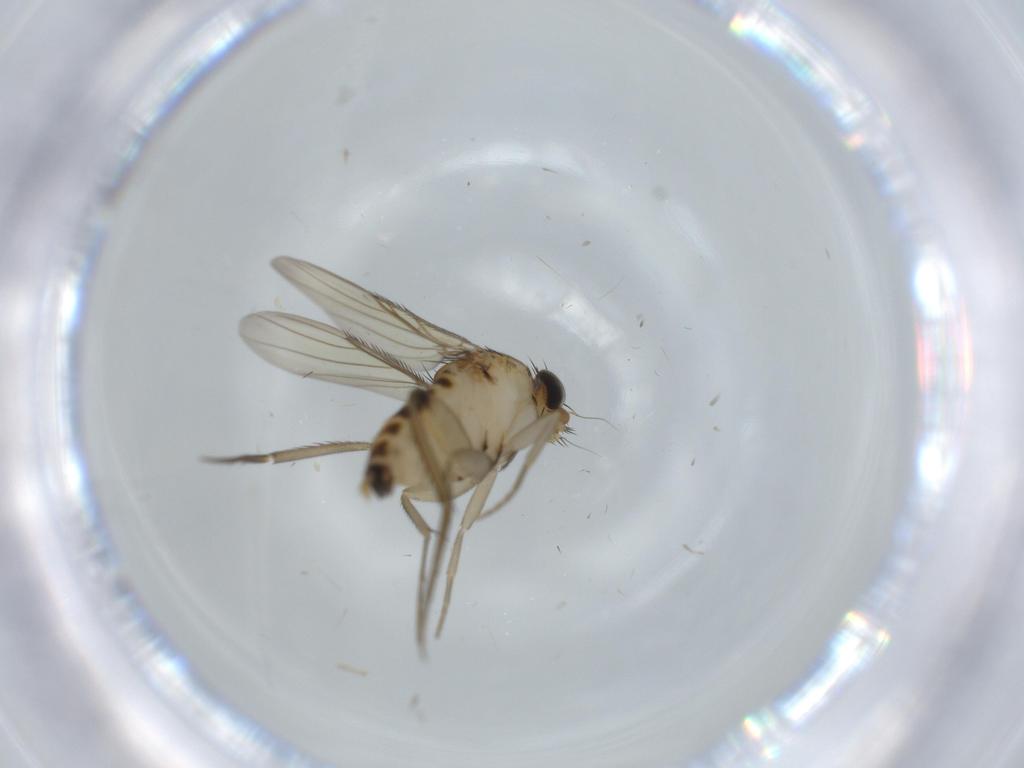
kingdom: Animalia
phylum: Arthropoda
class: Insecta
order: Diptera
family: Phoridae
